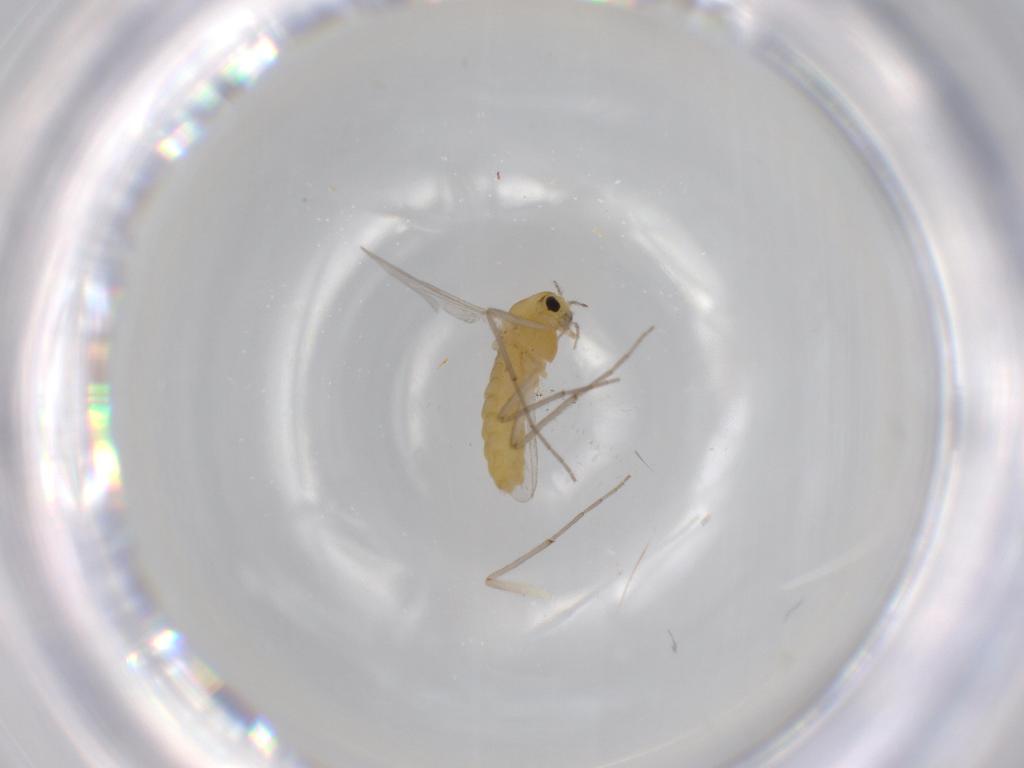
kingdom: Animalia
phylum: Arthropoda
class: Insecta
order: Diptera
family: Chironomidae
